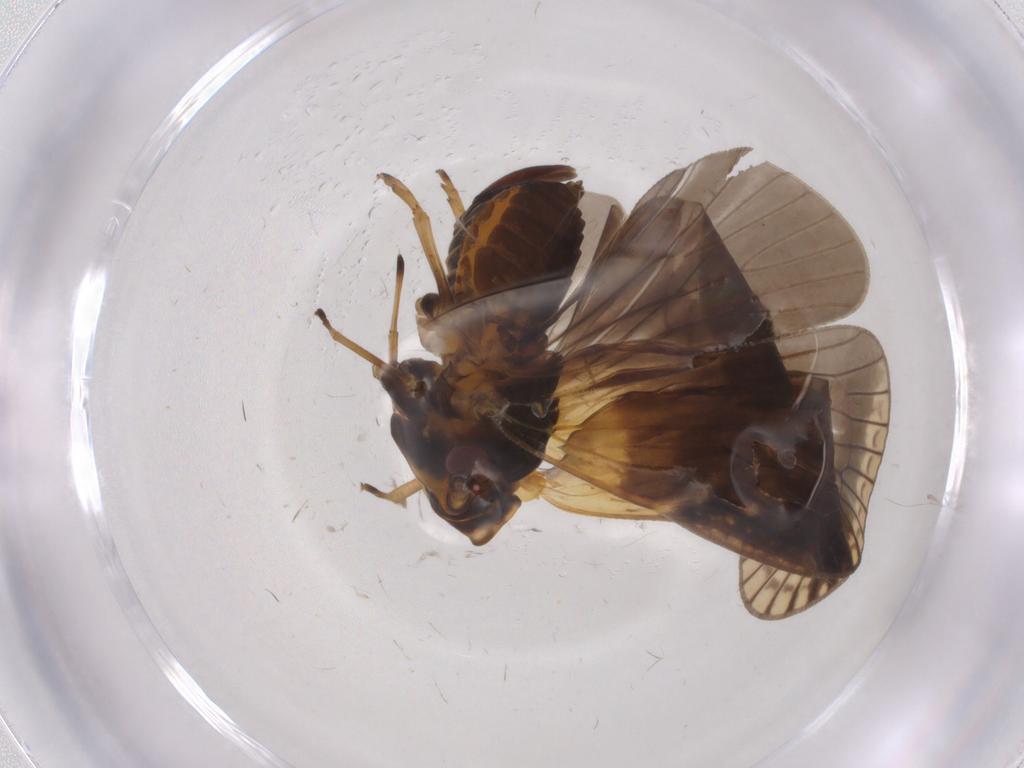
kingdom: Animalia
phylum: Arthropoda
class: Insecta
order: Hemiptera
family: Cixiidae
